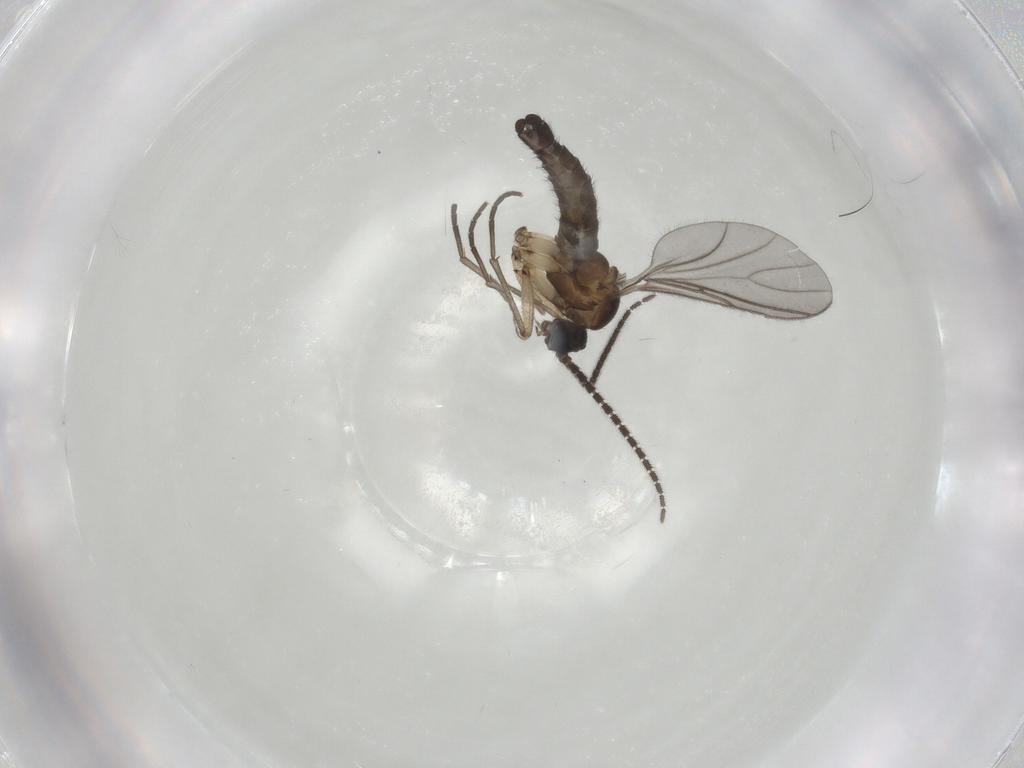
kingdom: Animalia
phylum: Arthropoda
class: Insecta
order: Diptera
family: Sciaridae
